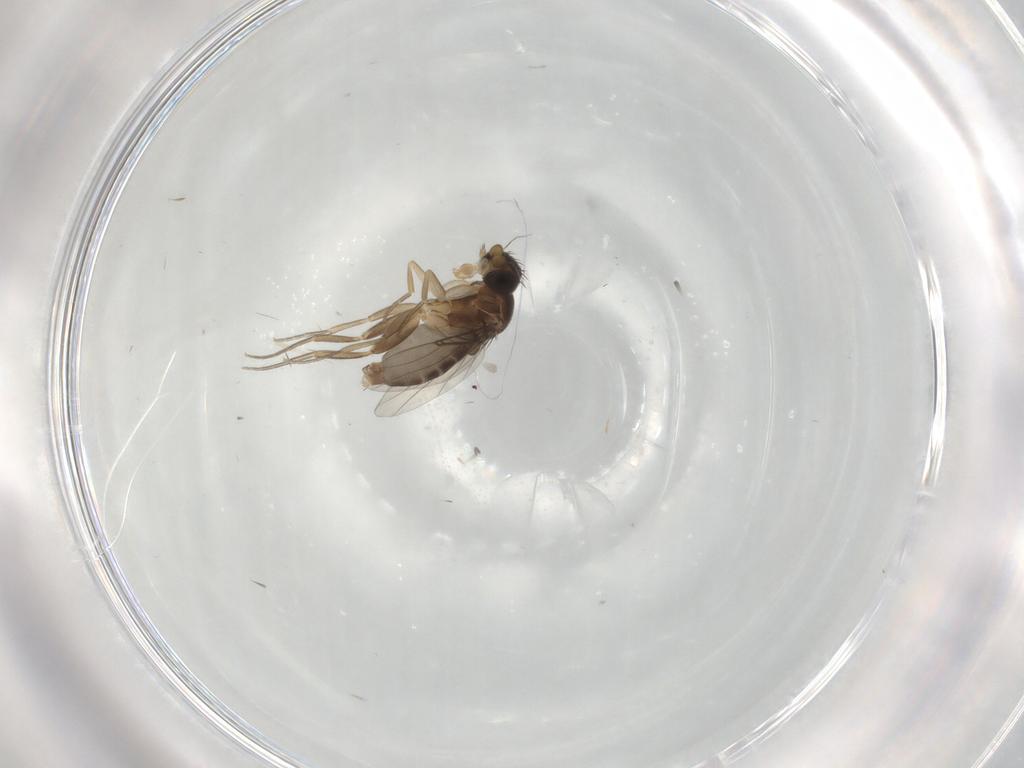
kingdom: Animalia
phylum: Arthropoda
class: Insecta
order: Diptera
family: Phoridae
